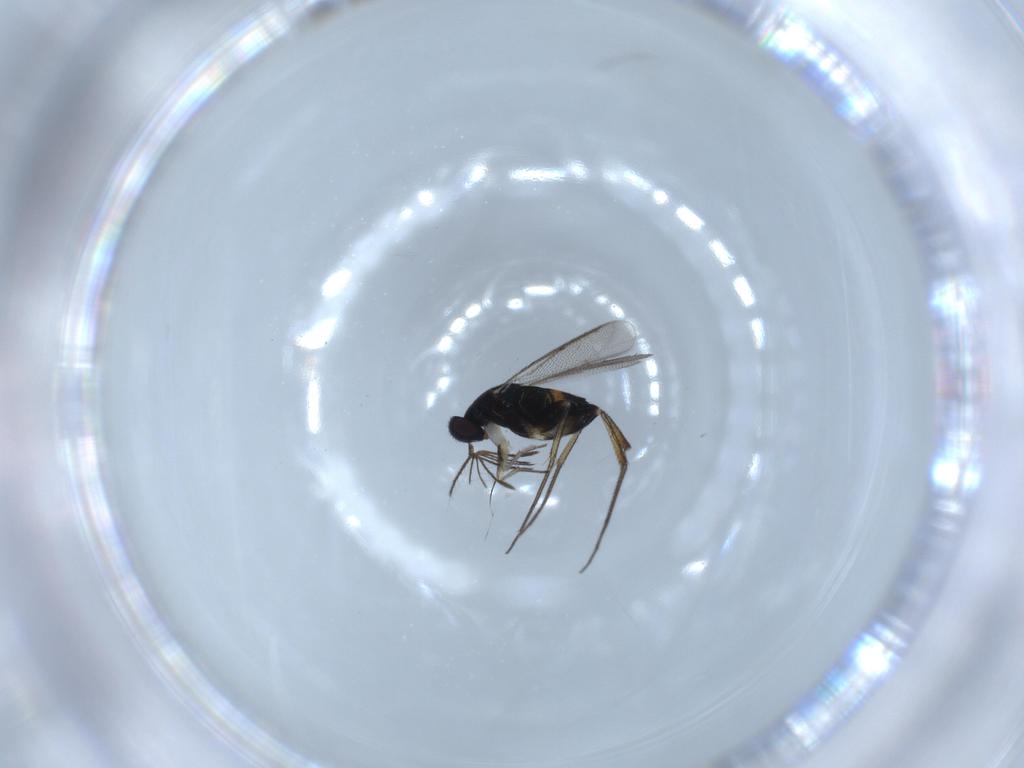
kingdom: Animalia
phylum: Arthropoda
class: Insecta
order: Hymenoptera
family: Eulophidae
